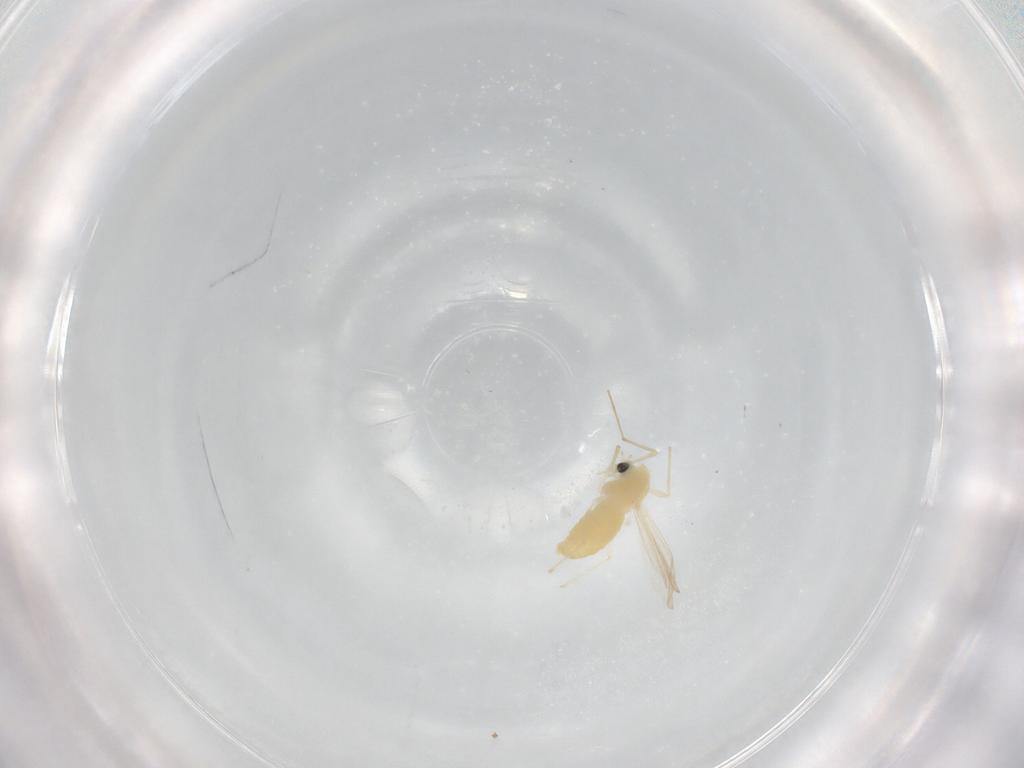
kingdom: Animalia
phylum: Arthropoda
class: Insecta
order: Diptera
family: Chironomidae
